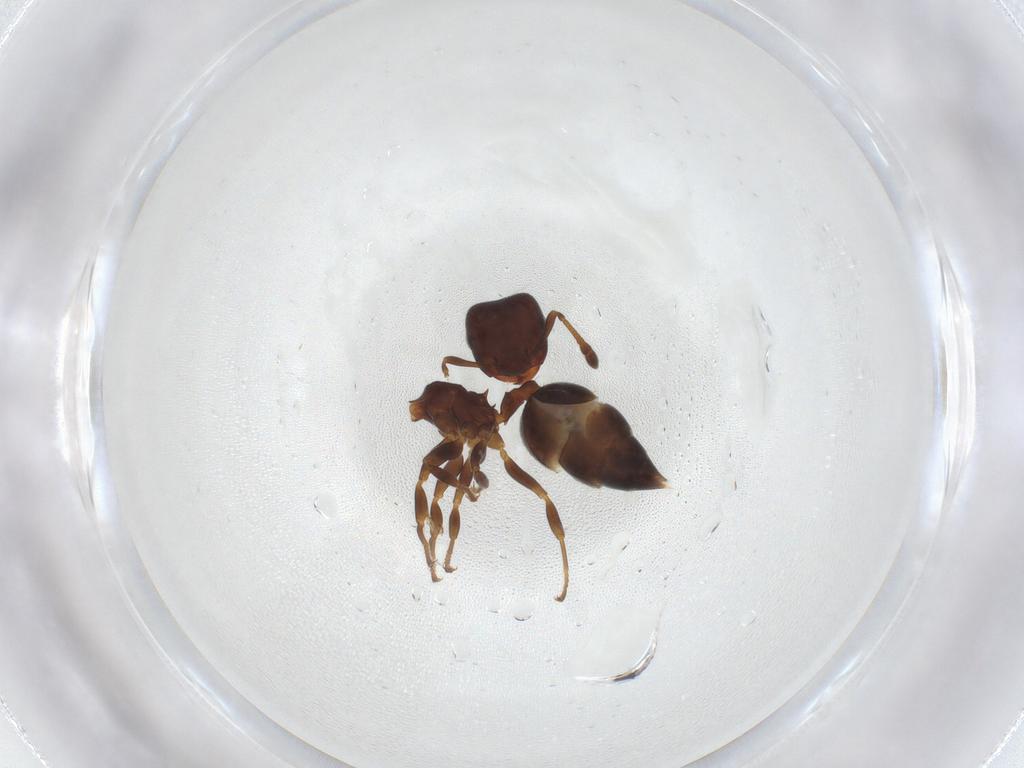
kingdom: Animalia
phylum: Arthropoda
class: Insecta
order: Hymenoptera
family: Formicidae
